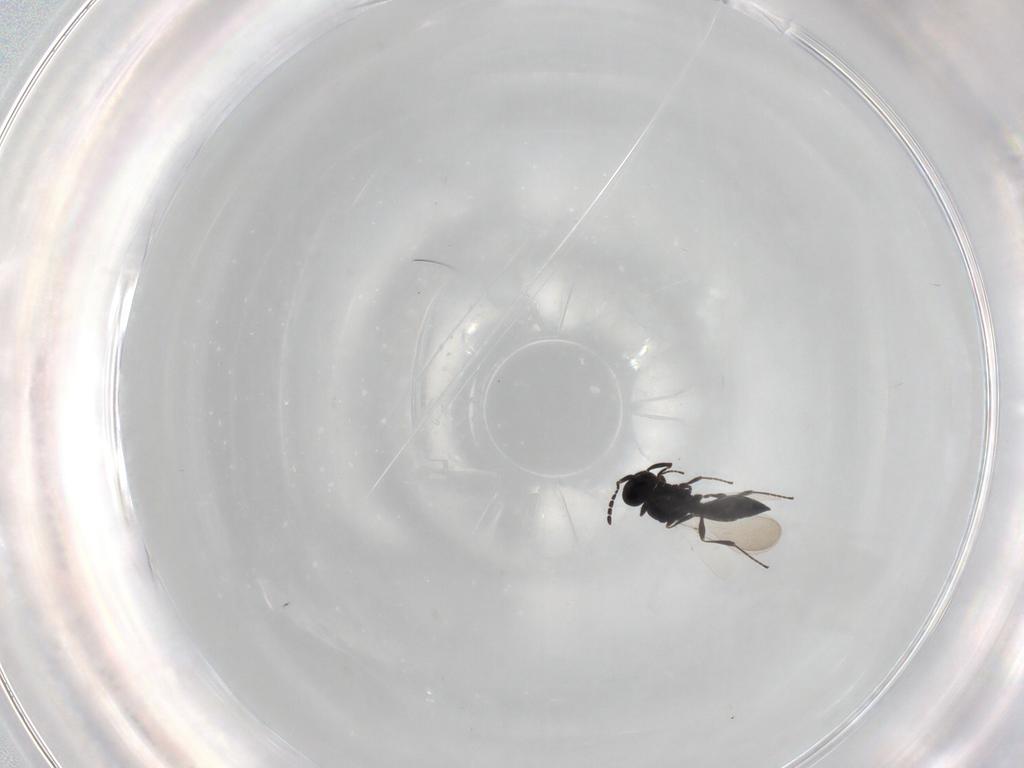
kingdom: Animalia
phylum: Arthropoda
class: Insecta
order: Hymenoptera
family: Platygastridae
